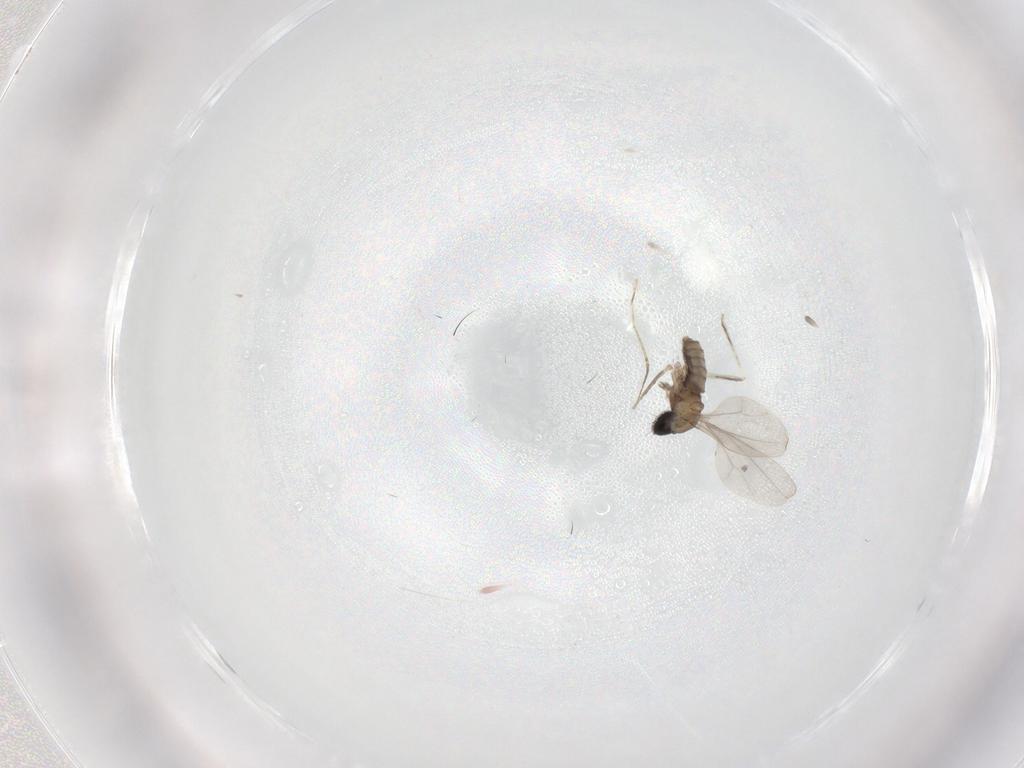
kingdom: Animalia
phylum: Arthropoda
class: Insecta
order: Diptera
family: Cecidomyiidae
